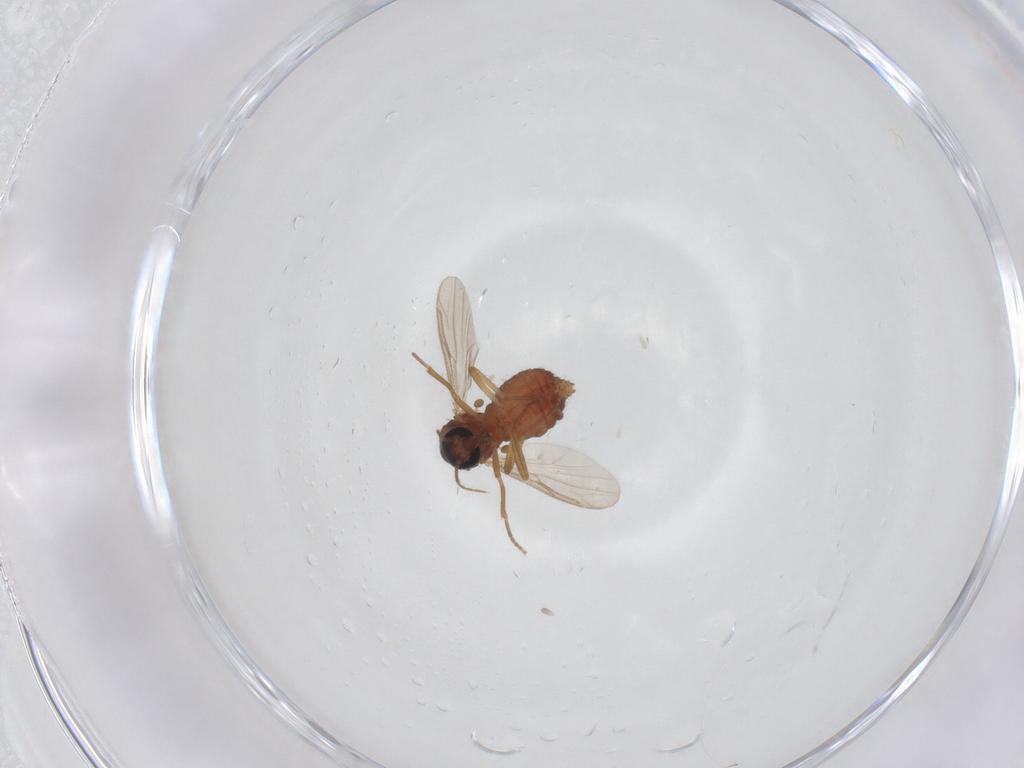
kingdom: Animalia
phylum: Arthropoda
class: Insecta
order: Diptera
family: Ceratopogonidae
